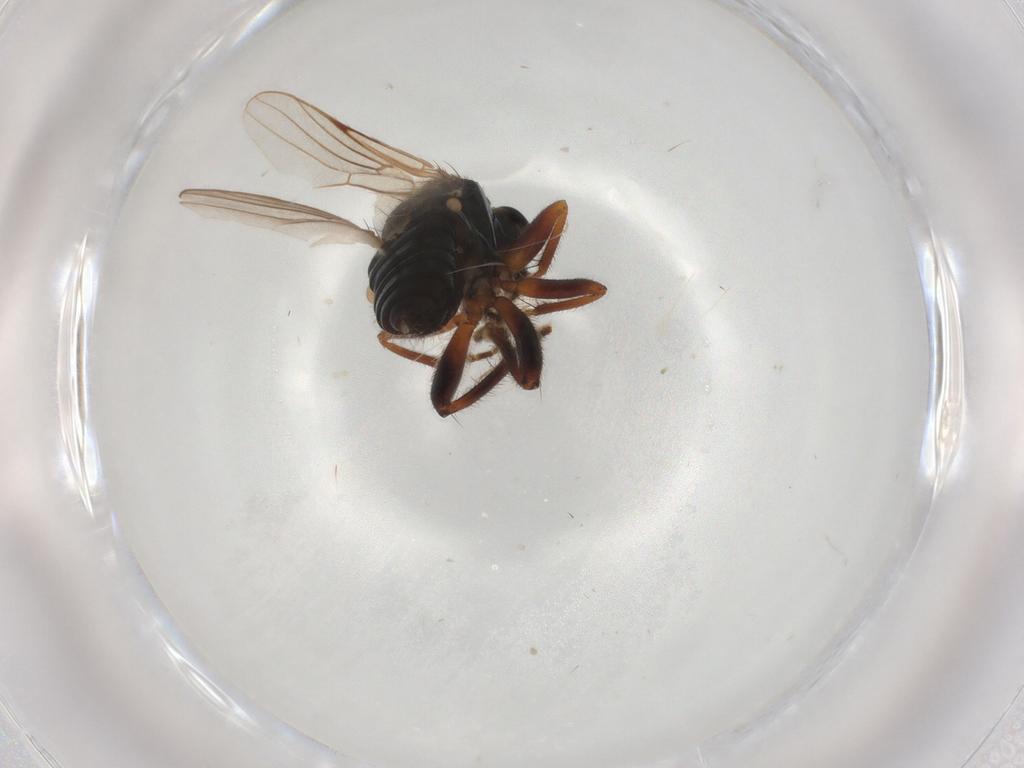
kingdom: Animalia
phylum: Arthropoda
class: Insecta
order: Diptera
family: Hybotidae
